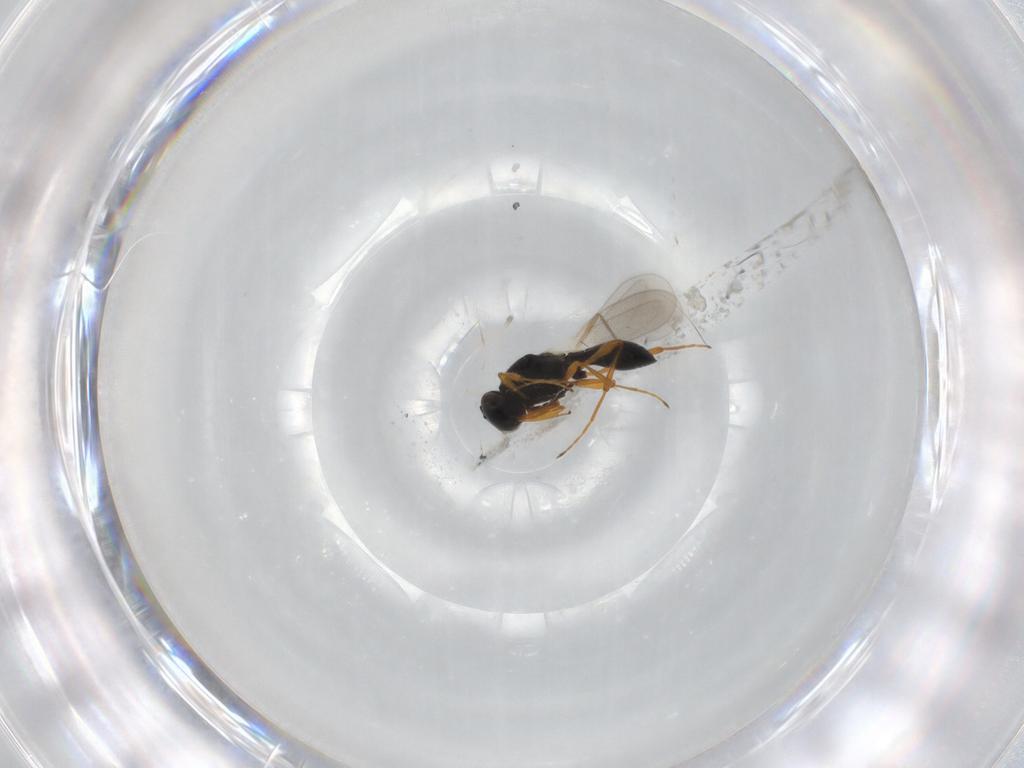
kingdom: Animalia
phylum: Arthropoda
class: Insecta
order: Hymenoptera
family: Platygastridae
